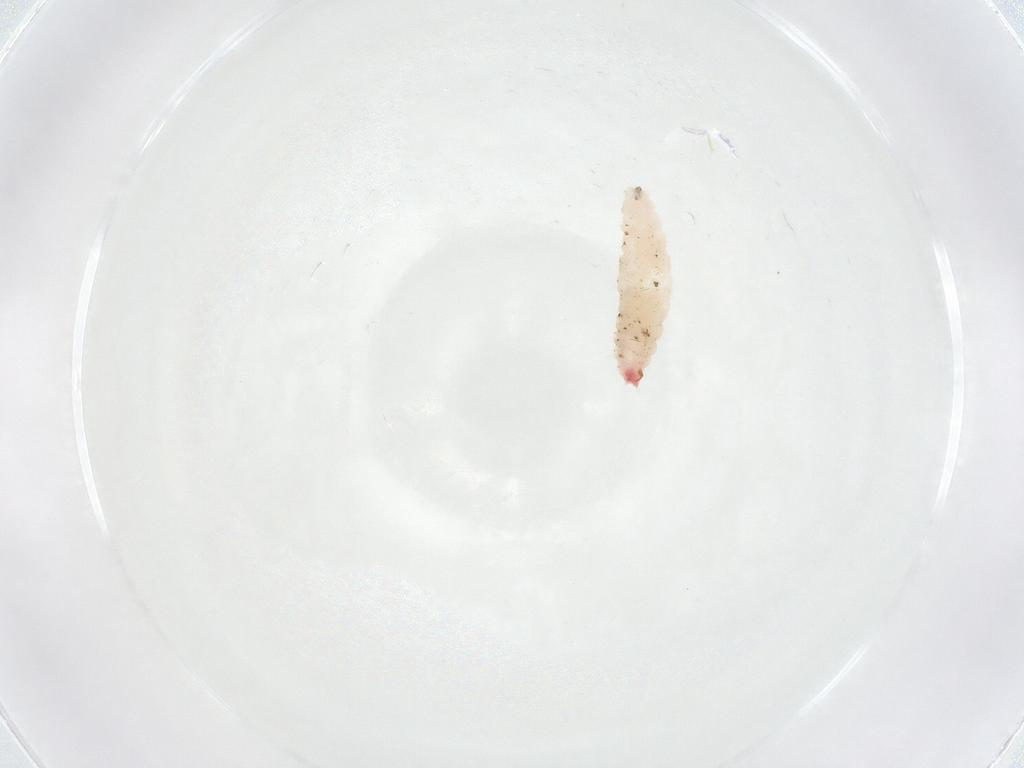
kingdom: Animalia
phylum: Arthropoda
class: Insecta
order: Diptera
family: Cecidomyiidae
